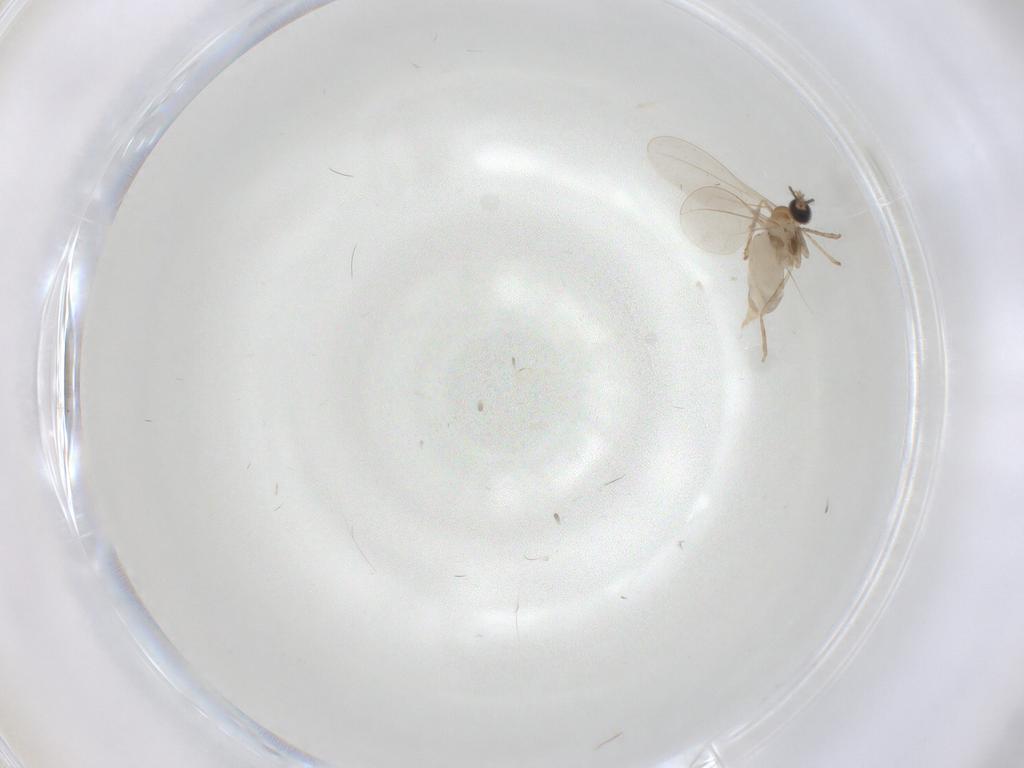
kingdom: Animalia
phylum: Arthropoda
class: Insecta
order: Diptera
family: Cecidomyiidae
